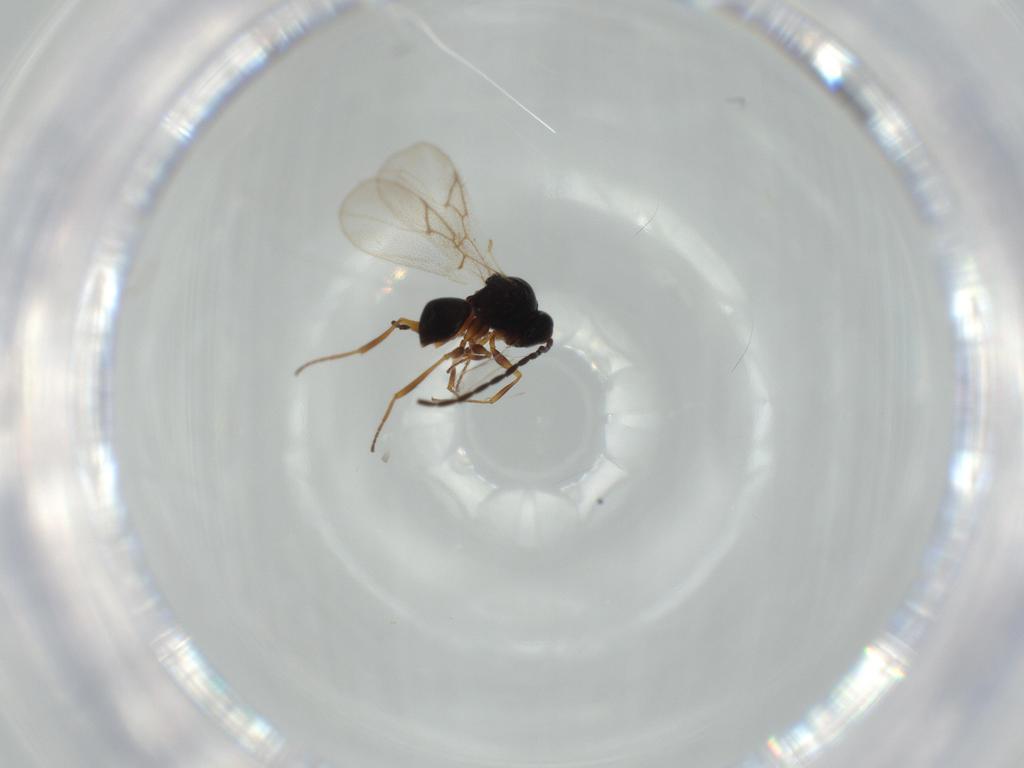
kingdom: Animalia
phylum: Arthropoda
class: Insecta
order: Hymenoptera
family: Figitidae
